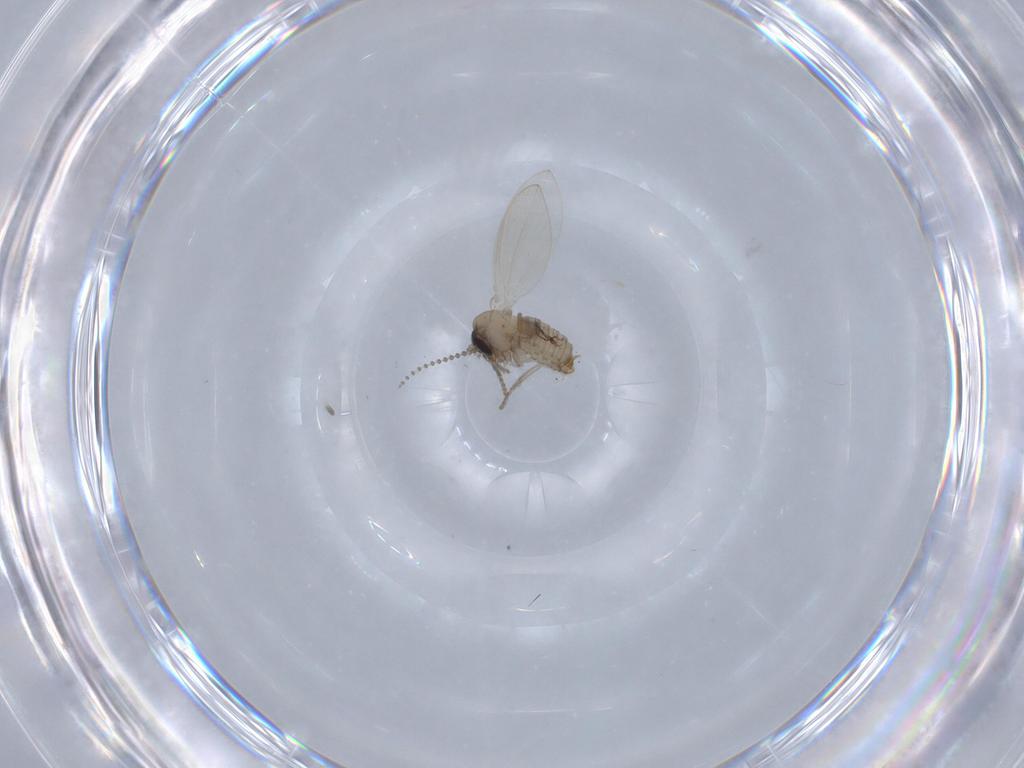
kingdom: Animalia
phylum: Arthropoda
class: Insecta
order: Diptera
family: Psychodidae
